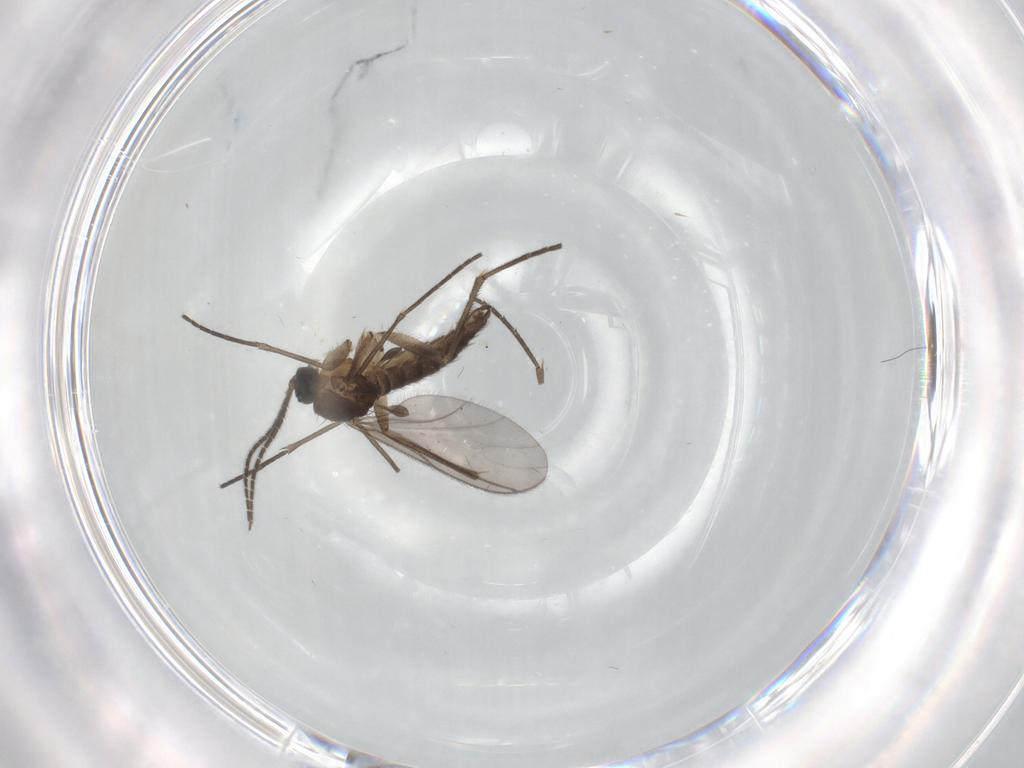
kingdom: Animalia
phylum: Arthropoda
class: Insecta
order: Diptera
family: Sciaridae
